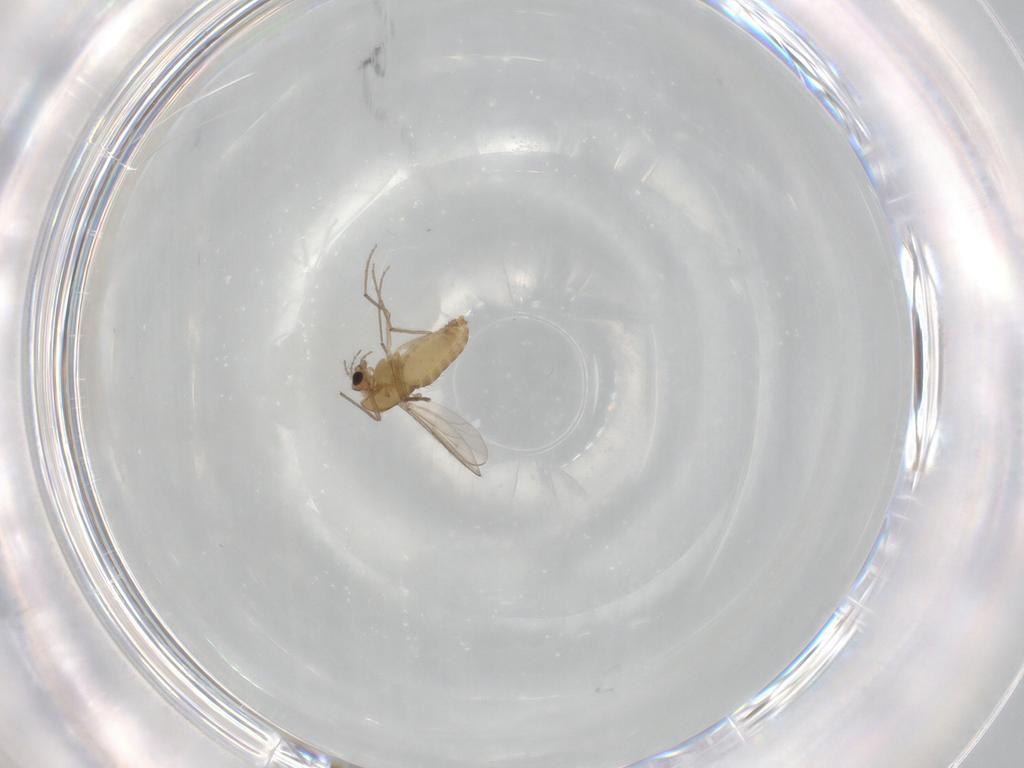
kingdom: Animalia
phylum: Arthropoda
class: Insecta
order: Diptera
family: Chironomidae
